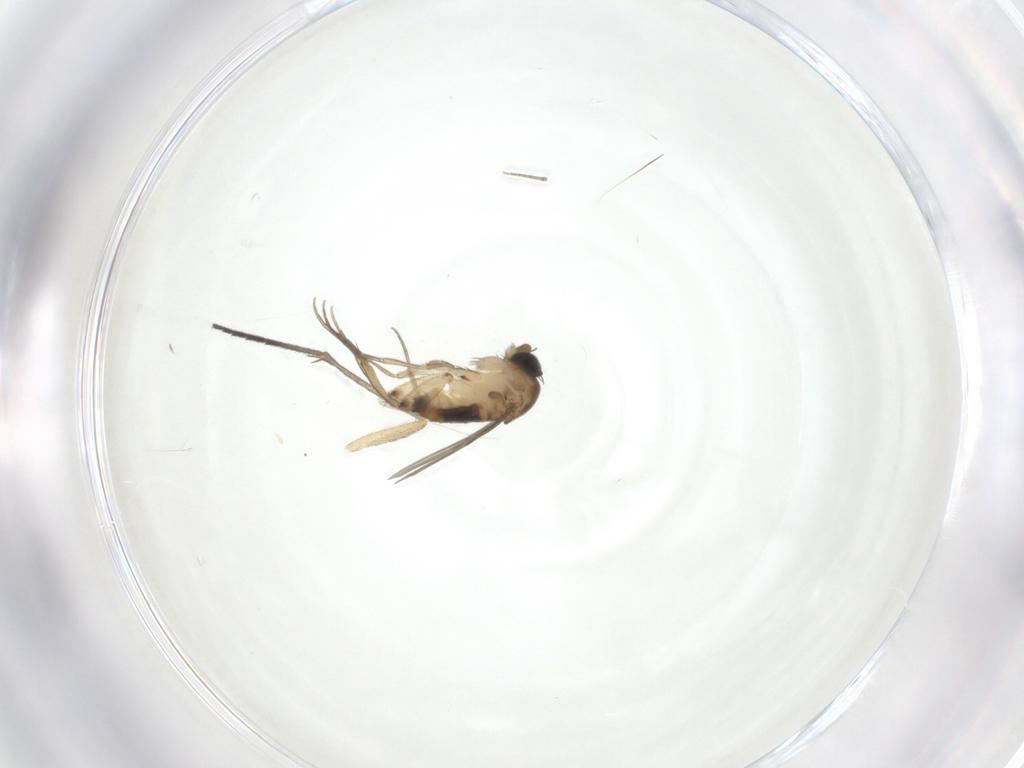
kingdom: Animalia
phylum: Arthropoda
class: Insecta
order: Diptera
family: Phoridae
